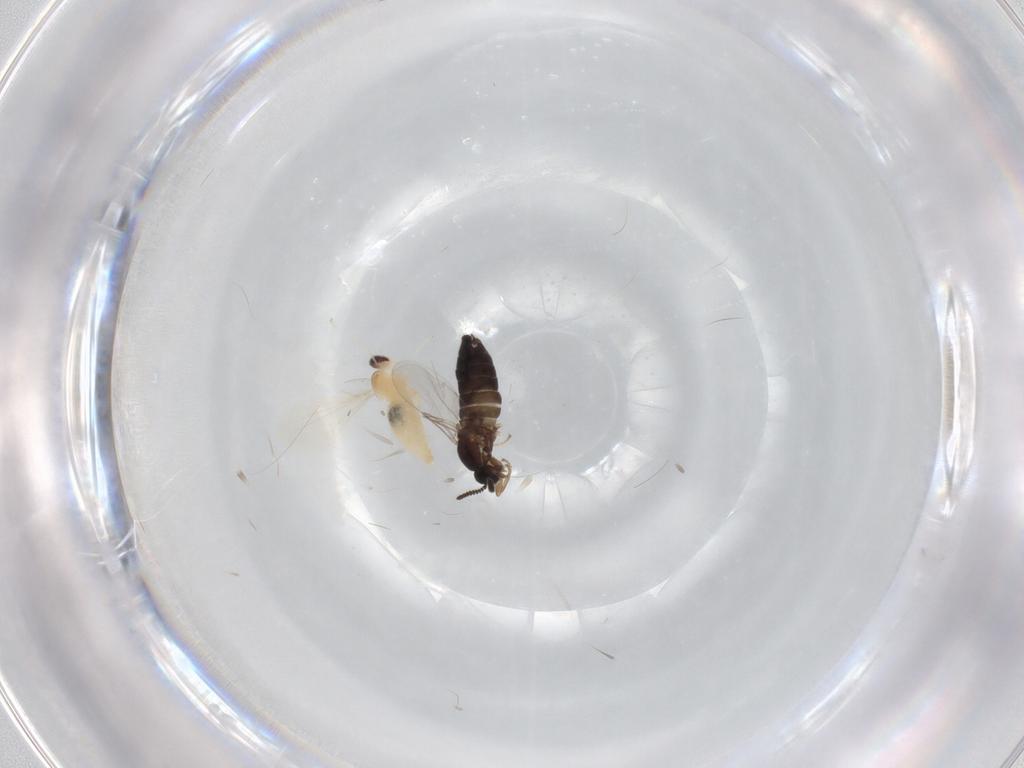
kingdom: Animalia
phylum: Arthropoda
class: Insecta
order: Diptera
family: Scatopsidae
